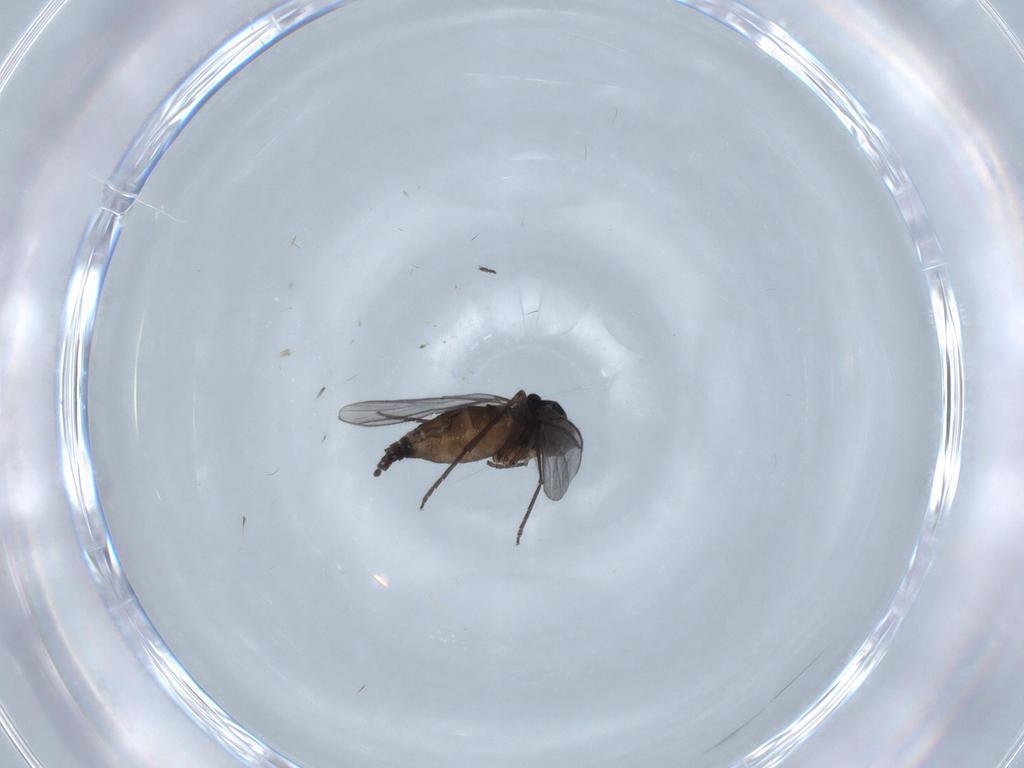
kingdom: Animalia
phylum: Arthropoda
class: Insecta
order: Diptera
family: Sciaridae
